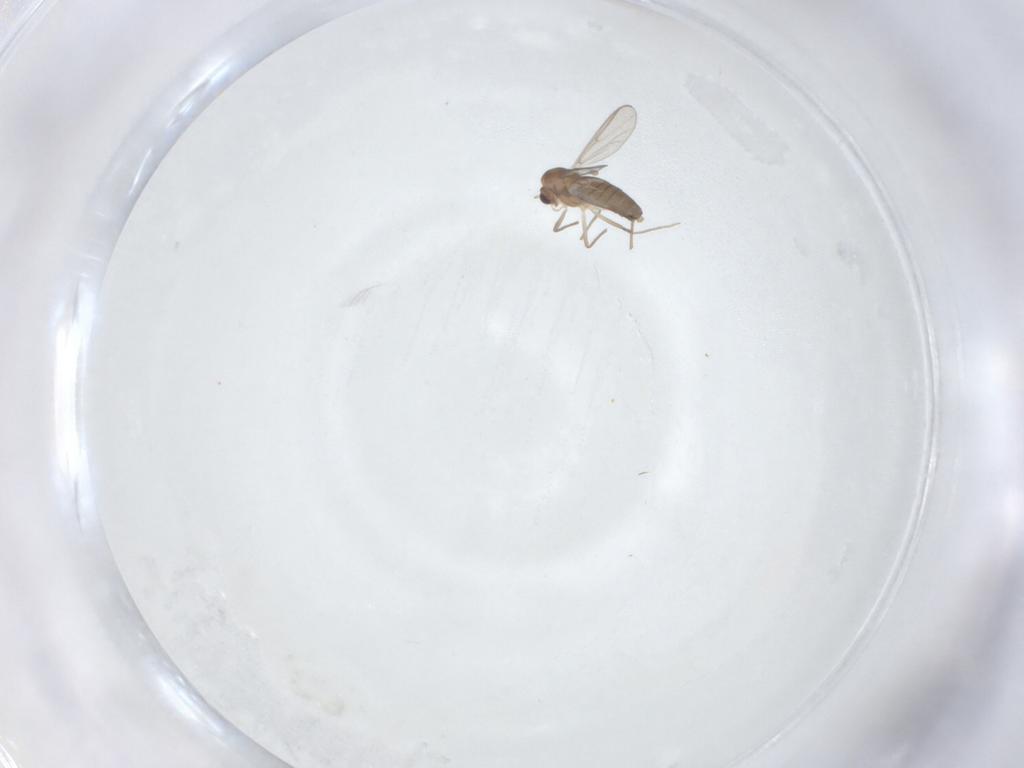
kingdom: Animalia
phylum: Arthropoda
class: Insecta
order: Diptera
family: Chironomidae
